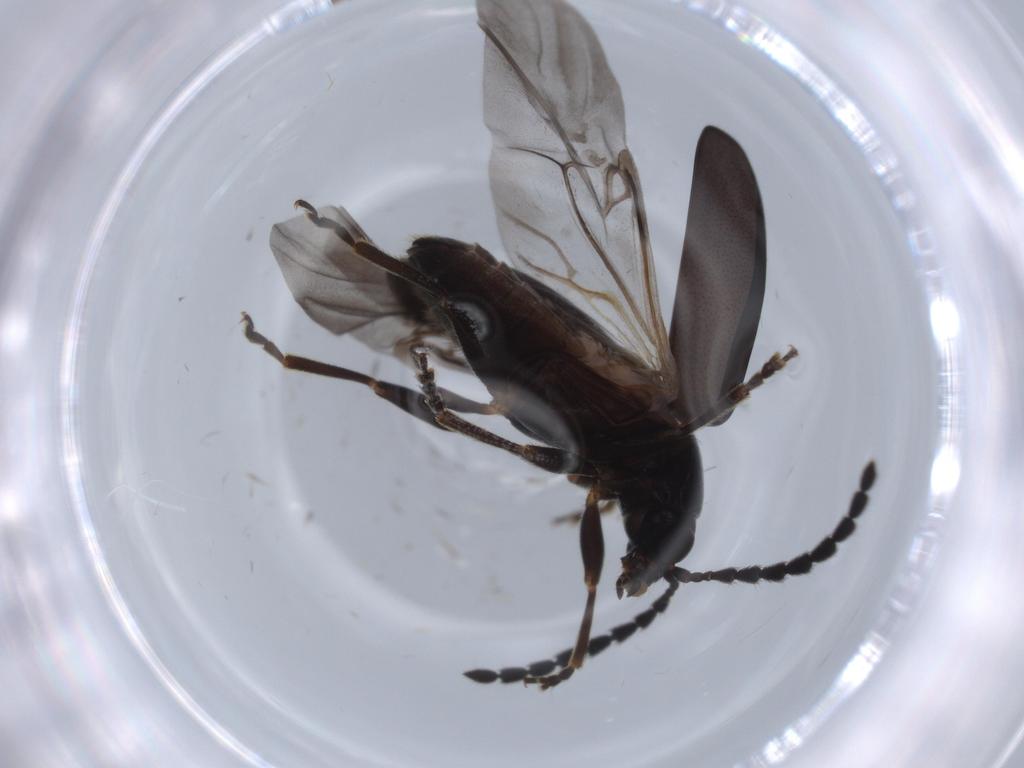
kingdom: Animalia
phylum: Arthropoda
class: Insecta
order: Coleoptera
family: Chrysomelidae
